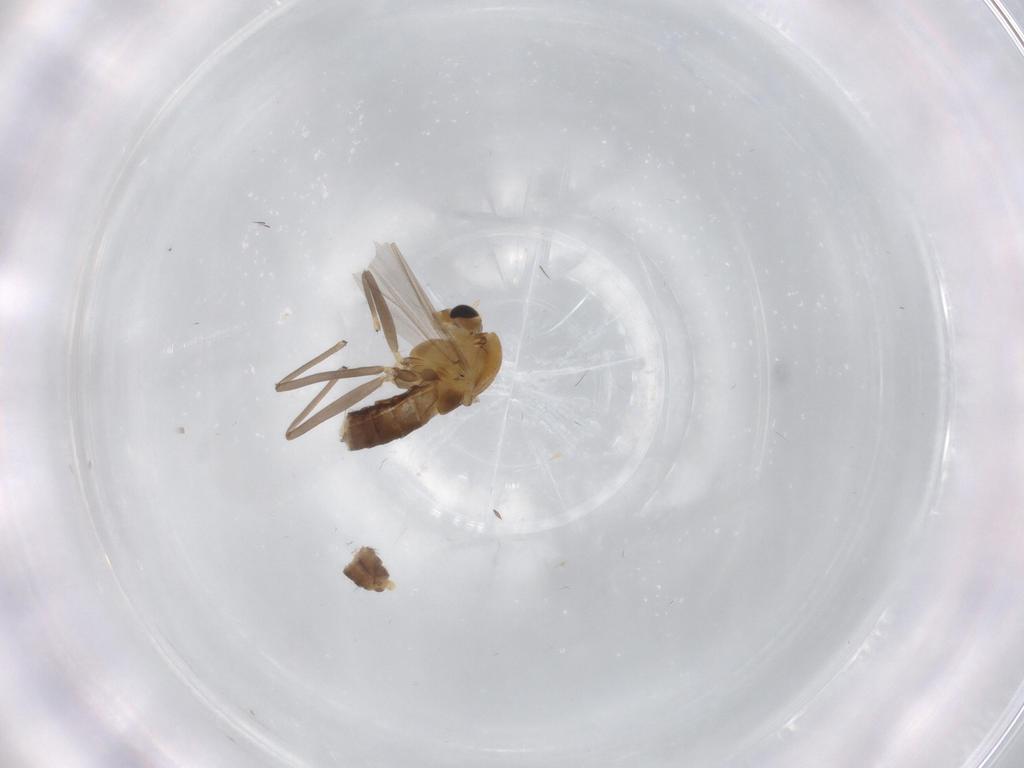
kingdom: Animalia
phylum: Arthropoda
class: Insecta
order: Diptera
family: Chironomidae
